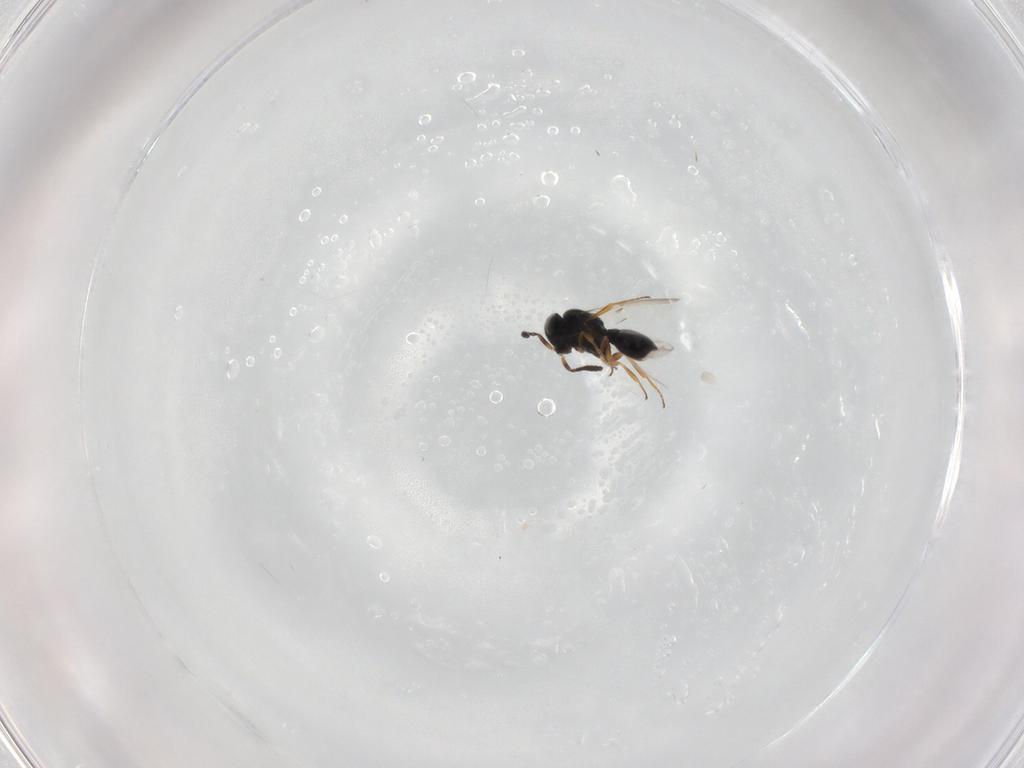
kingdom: Animalia
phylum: Arthropoda
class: Insecta
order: Hymenoptera
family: Scelionidae
